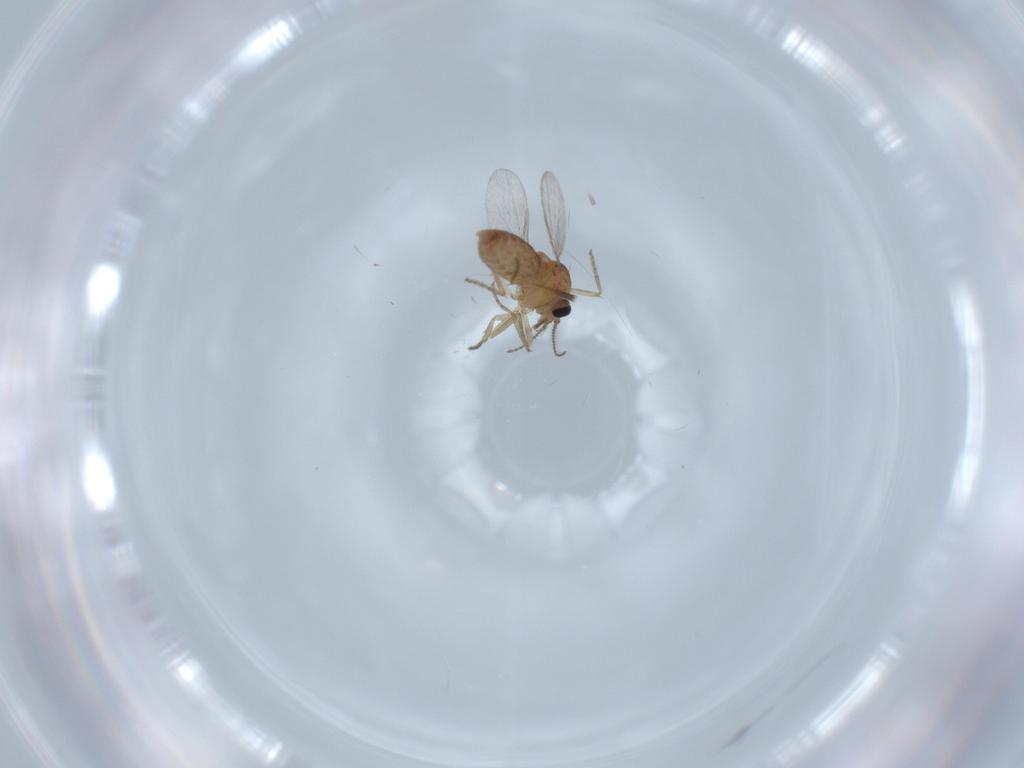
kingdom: Animalia
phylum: Arthropoda
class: Insecta
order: Diptera
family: Ceratopogonidae
